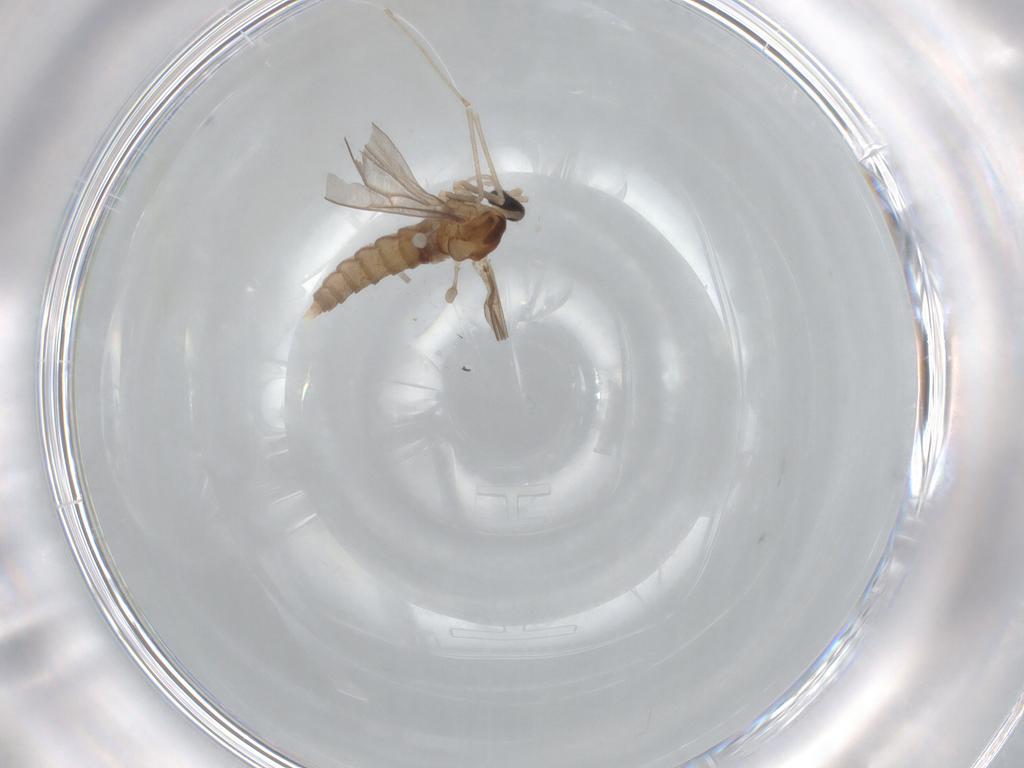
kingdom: Animalia
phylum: Arthropoda
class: Insecta
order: Diptera
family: Cecidomyiidae
